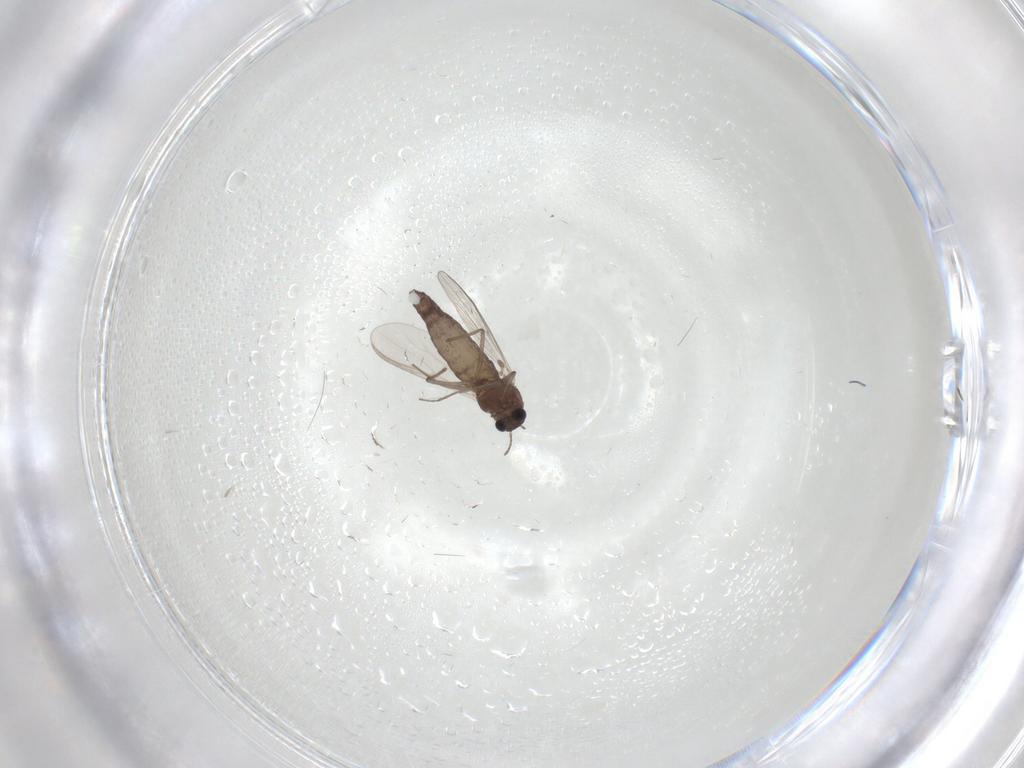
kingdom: Animalia
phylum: Arthropoda
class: Insecta
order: Diptera
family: Chironomidae
